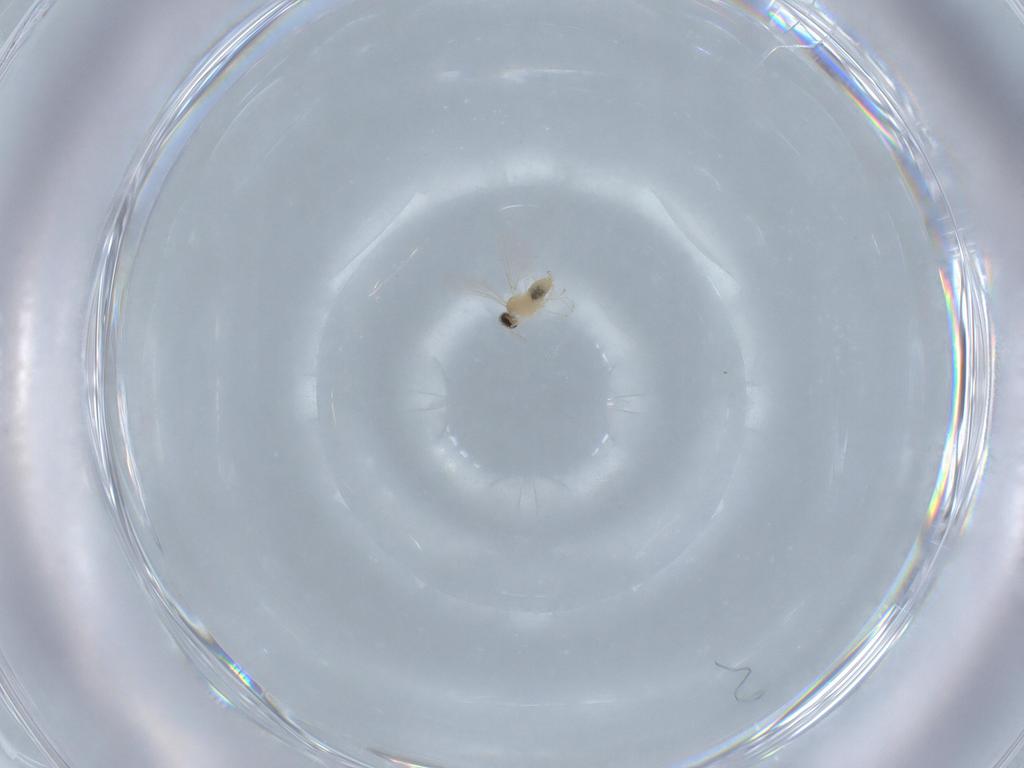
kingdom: Animalia
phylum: Arthropoda
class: Insecta
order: Diptera
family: Cecidomyiidae
